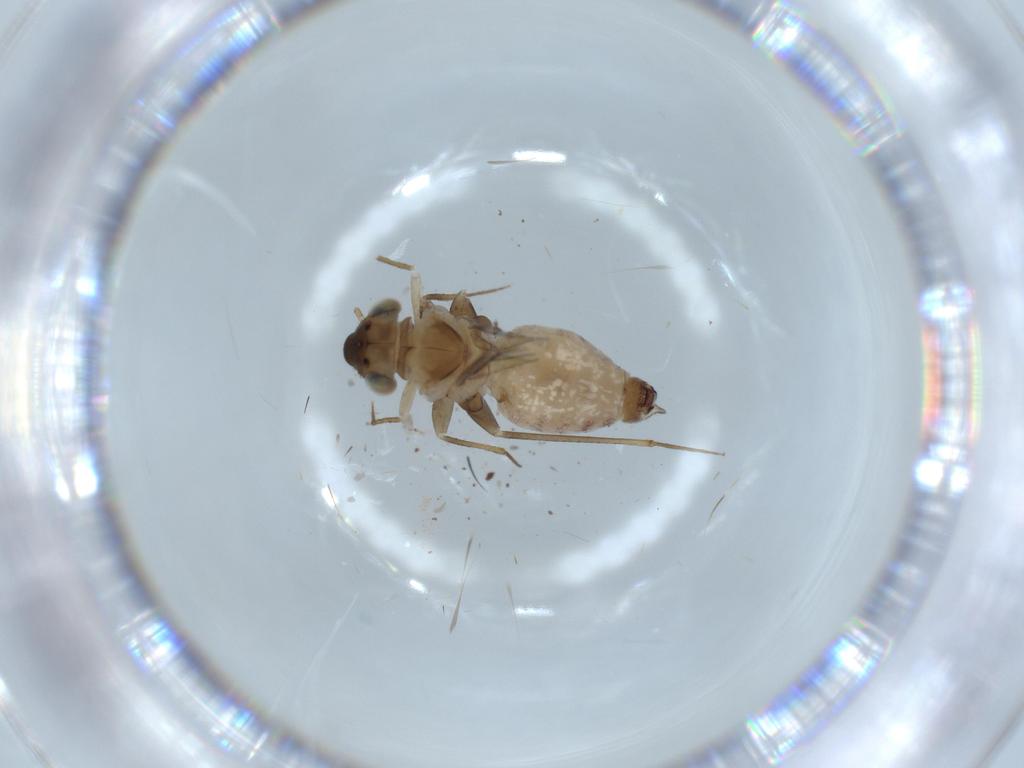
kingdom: Animalia
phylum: Arthropoda
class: Insecta
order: Psocodea
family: Lepidopsocidae
